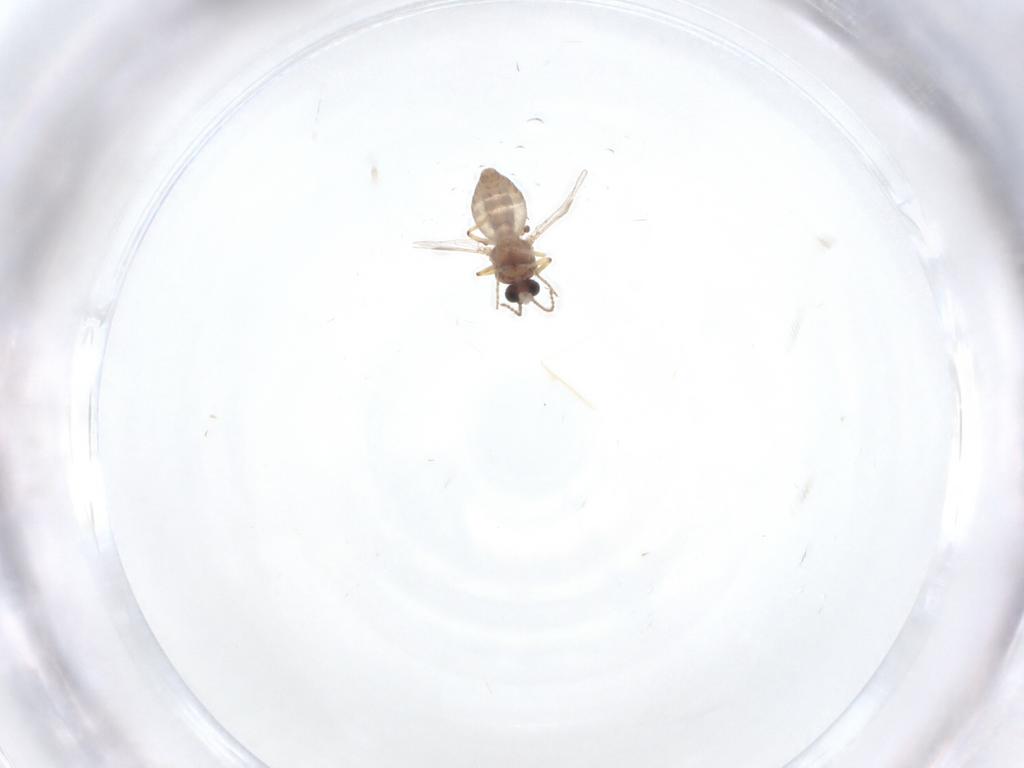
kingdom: Animalia
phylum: Arthropoda
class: Insecta
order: Diptera
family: Ceratopogonidae
